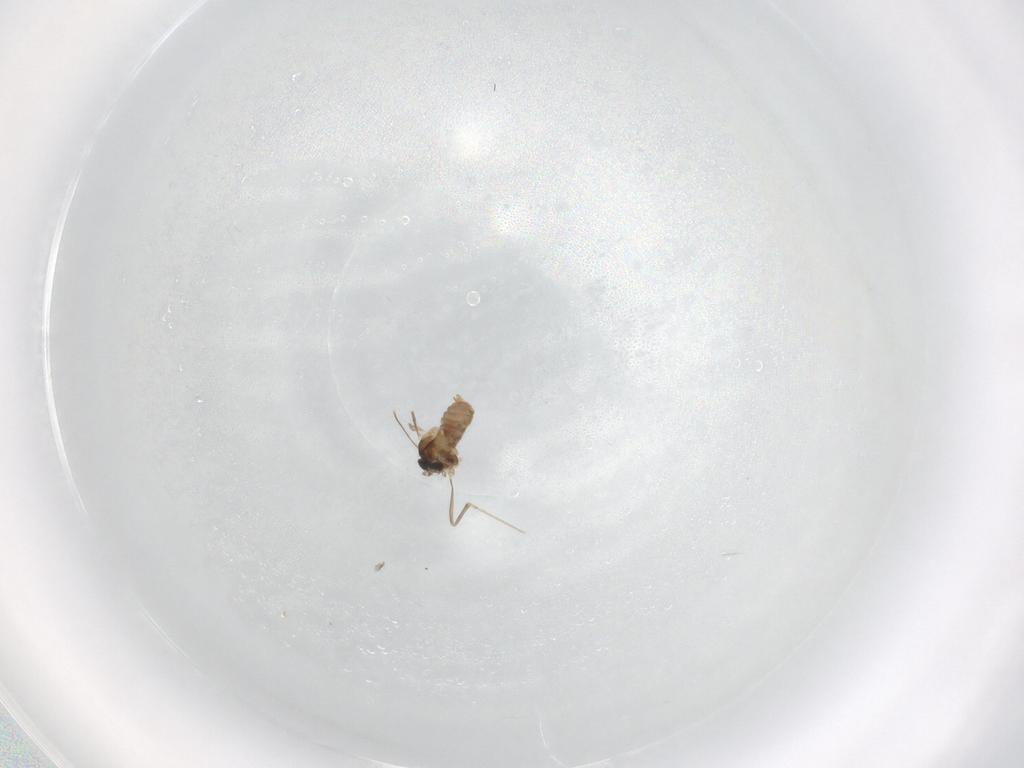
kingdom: Animalia
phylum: Arthropoda
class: Insecta
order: Diptera
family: Cecidomyiidae
